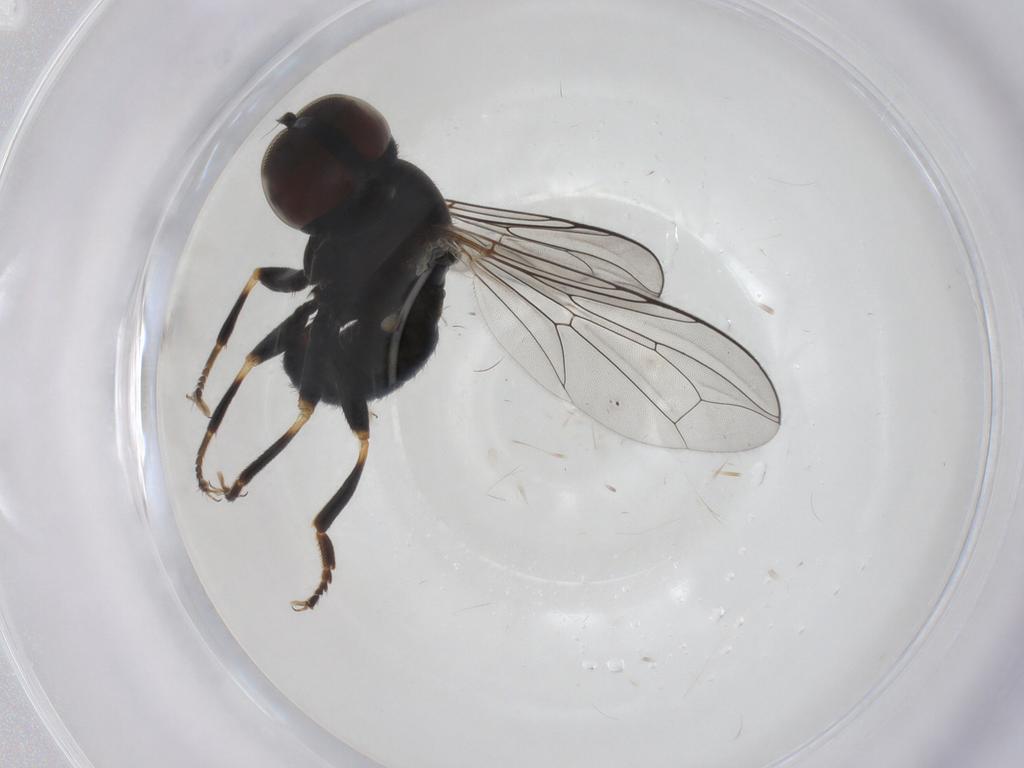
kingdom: Animalia
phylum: Arthropoda
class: Insecta
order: Diptera
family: Pipunculidae
